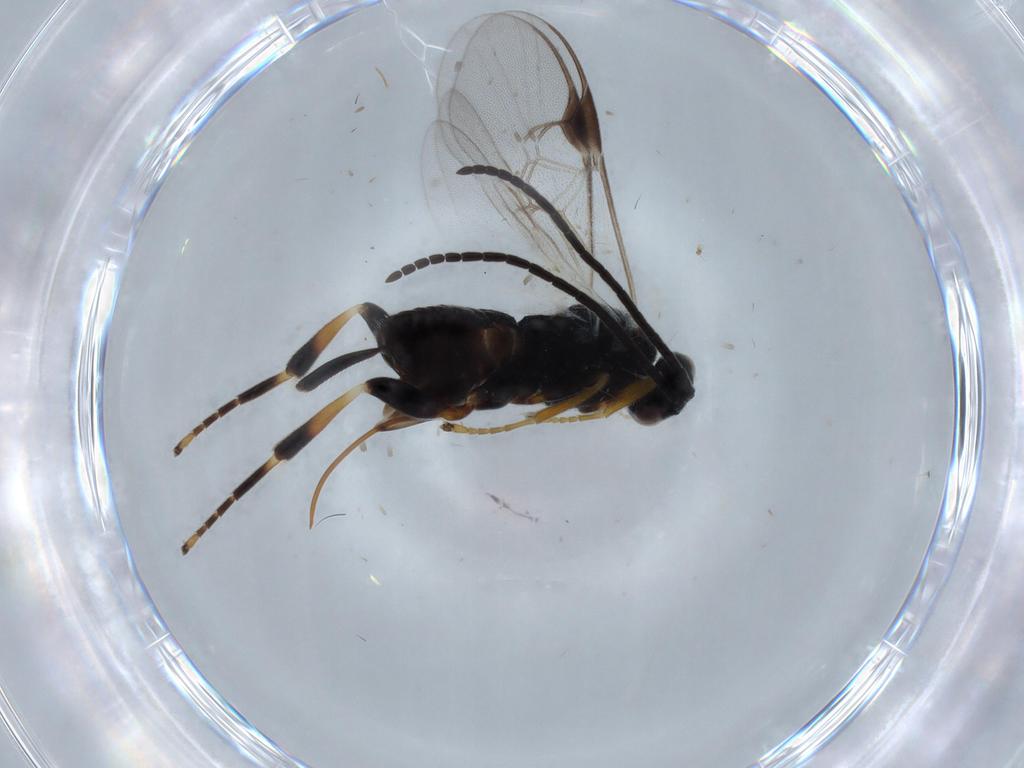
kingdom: Animalia
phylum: Arthropoda
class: Insecta
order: Hymenoptera
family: Braconidae
